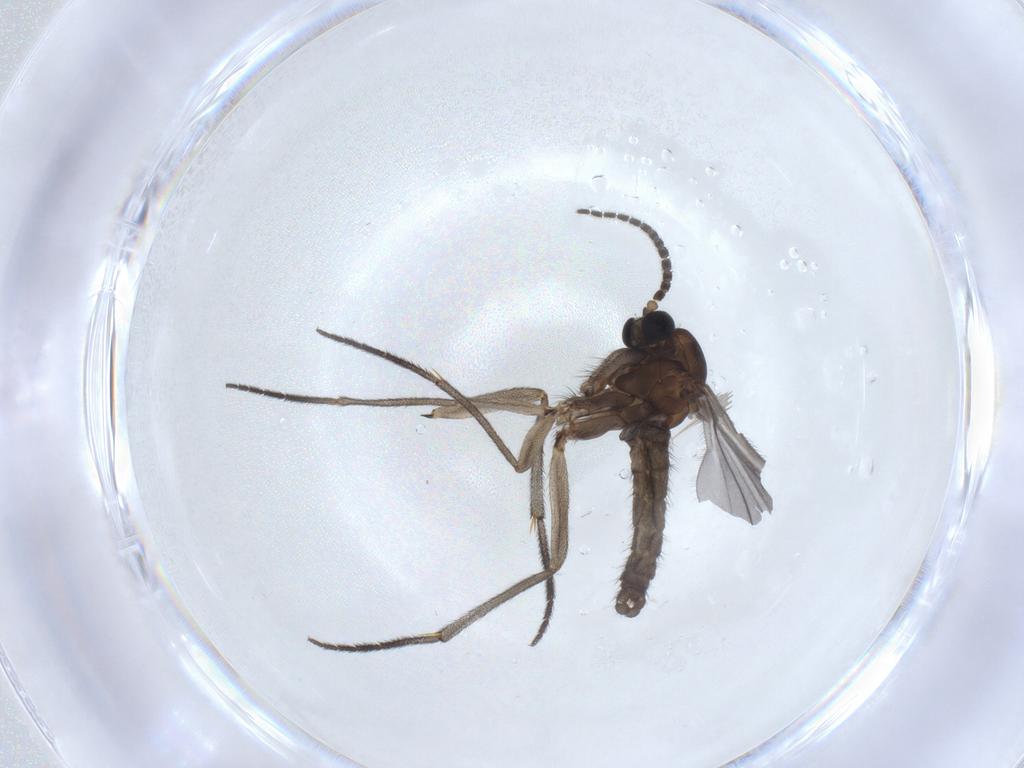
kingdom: Animalia
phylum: Arthropoda
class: Insecta
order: Diptera
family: Sciaridae
